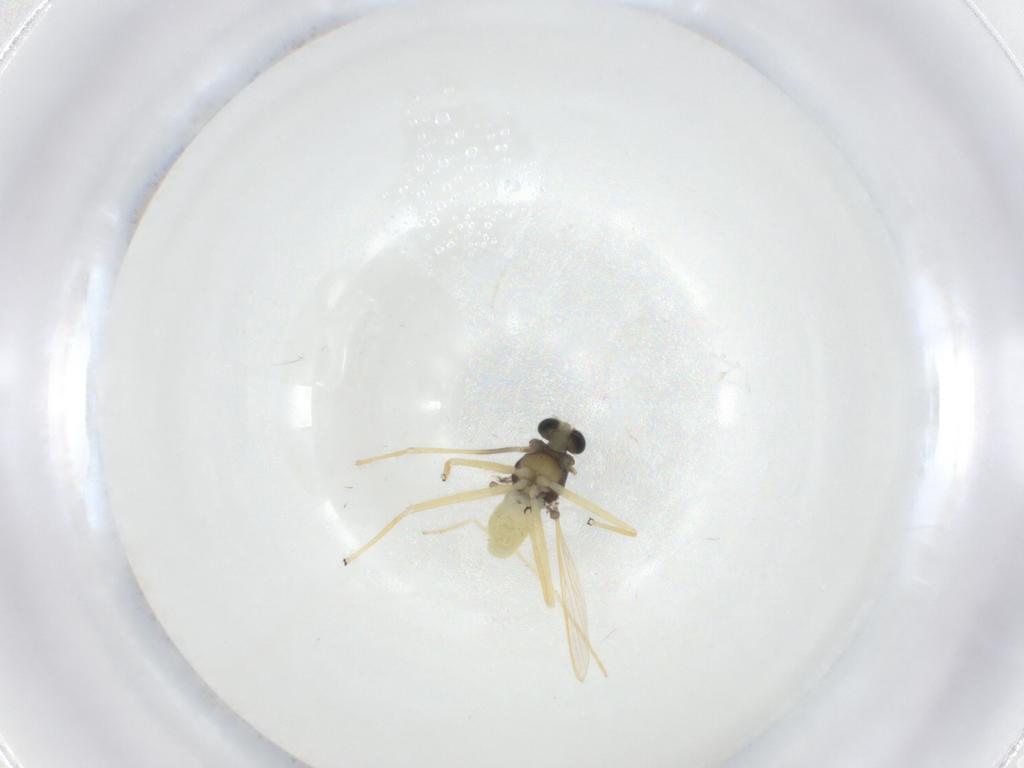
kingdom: Animalia
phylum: Arthropoda
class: Insecta
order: Diptera
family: Chironomidae
